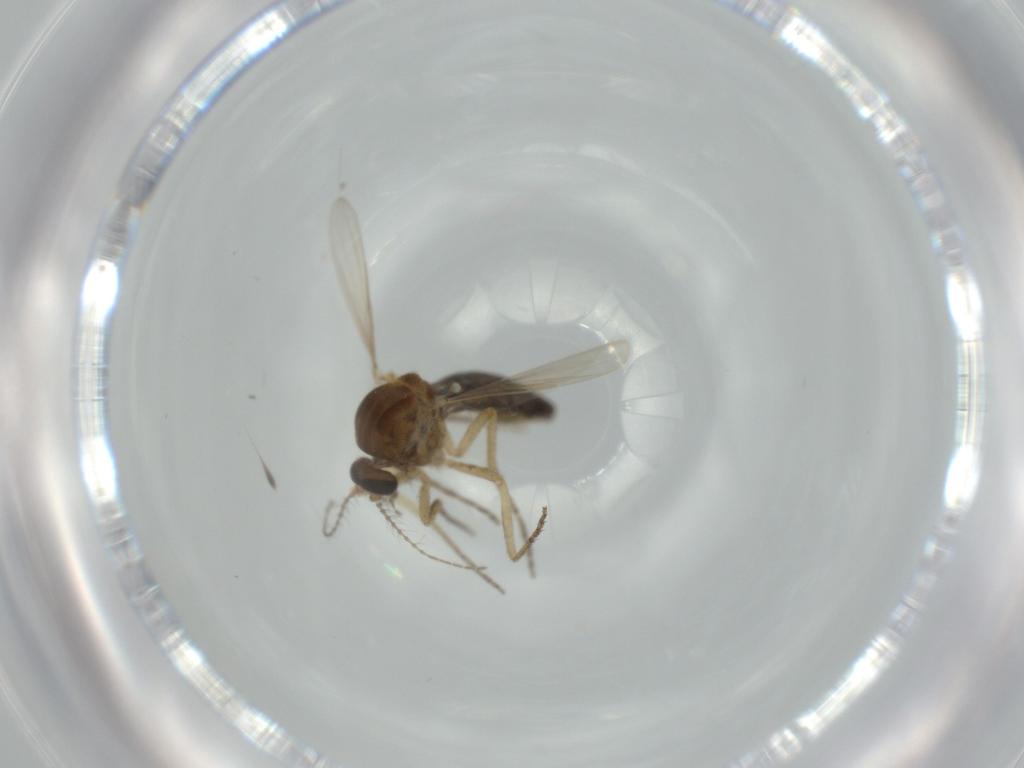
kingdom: Animalia
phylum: Arthropoda
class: Insecta
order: Diptera
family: Ceratopogonidae
